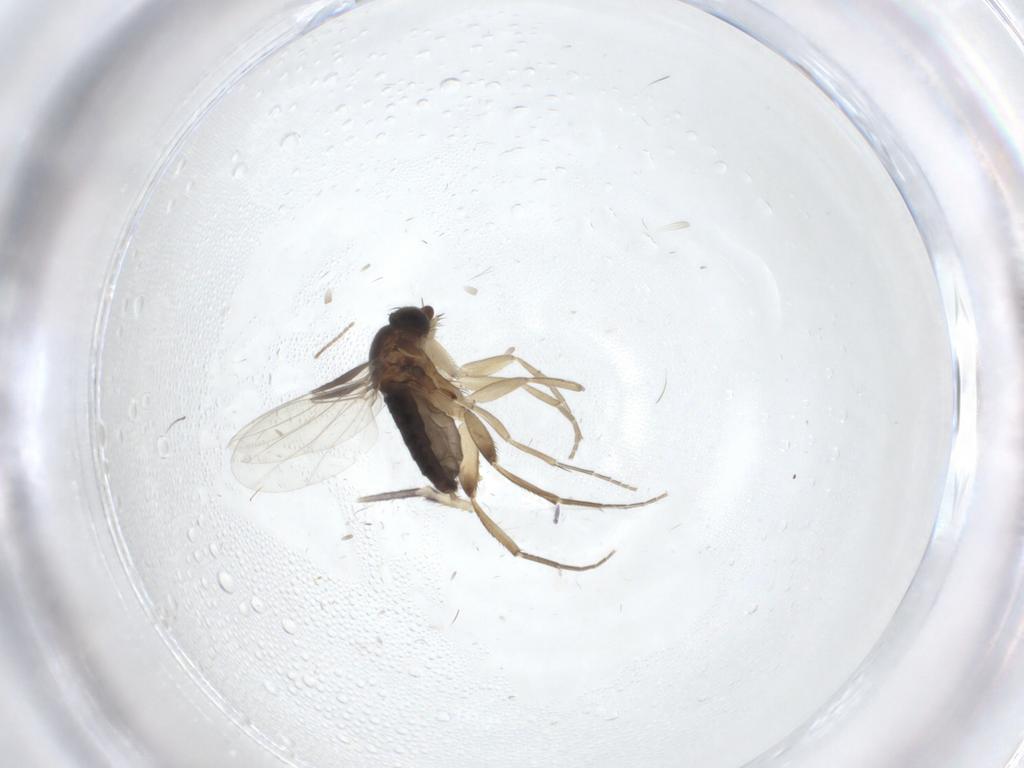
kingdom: Animalia
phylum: Arthropoda
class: Insecta
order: Diptera
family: Phoridae
